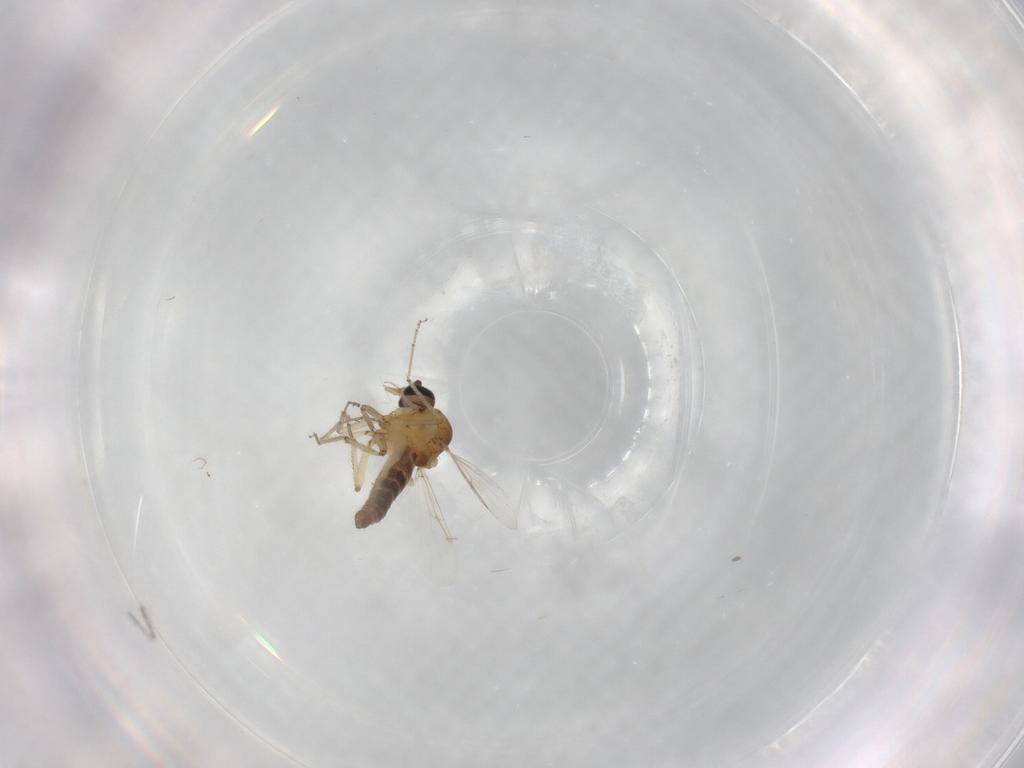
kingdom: Animalia
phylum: Arthropoda
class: Insecta
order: Diptera
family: Ceratopogonidae
